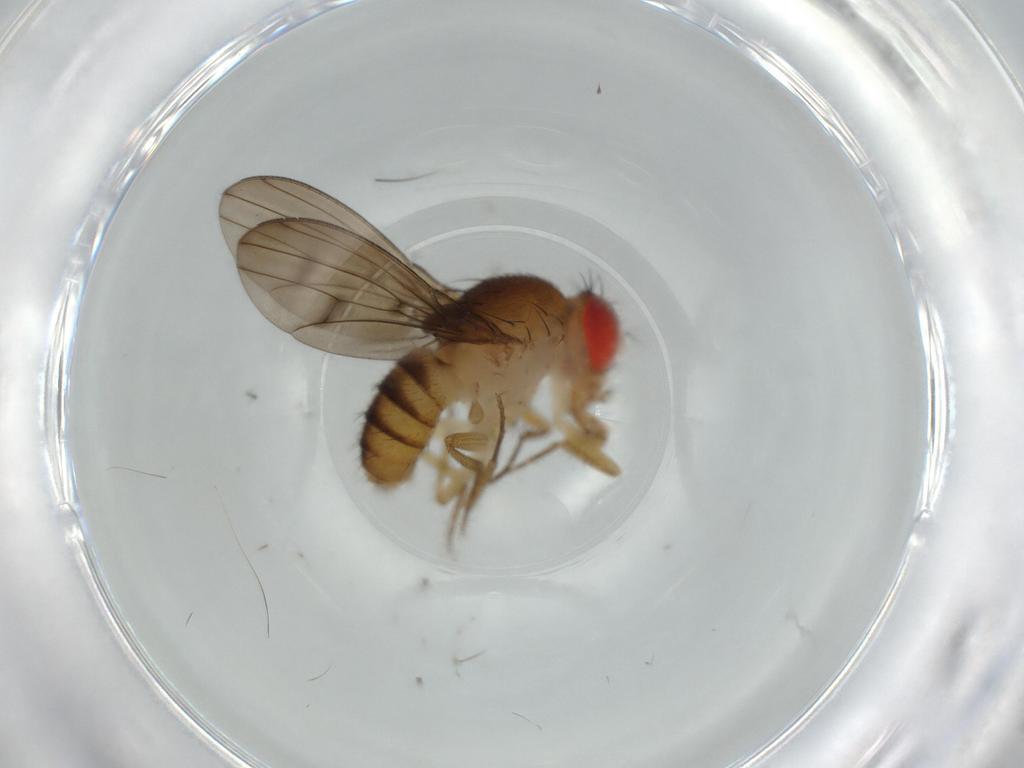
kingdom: Animalia
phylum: Arthropoda
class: Insecta
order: Diptera
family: Drosophilidae
